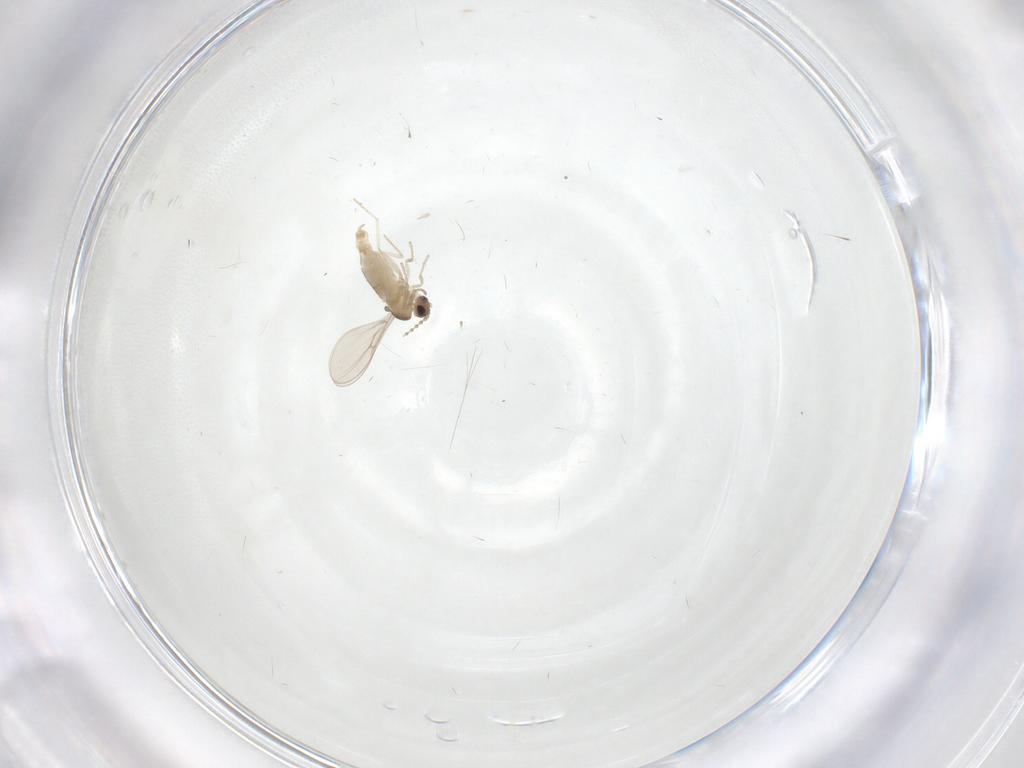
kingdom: Animalia
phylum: Arthropoda
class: Insecta
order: Diptera
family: Cecidomyiidae
